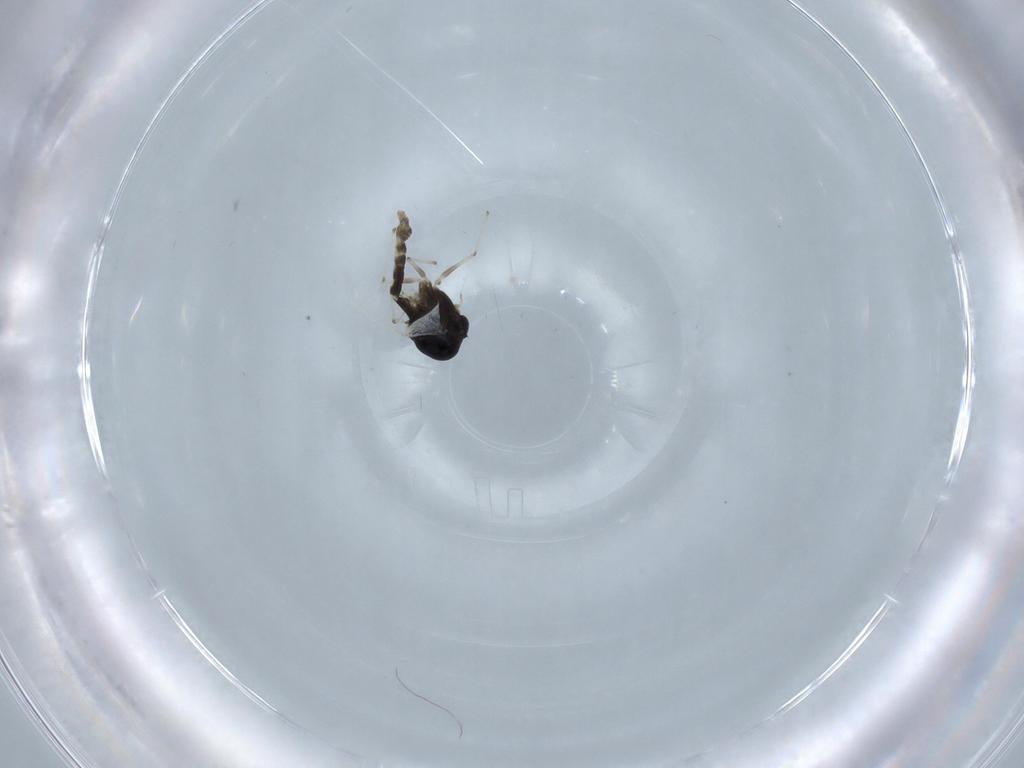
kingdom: Animalia
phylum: Arthropoda
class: Insecta
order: Diptera
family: Chironomidae
